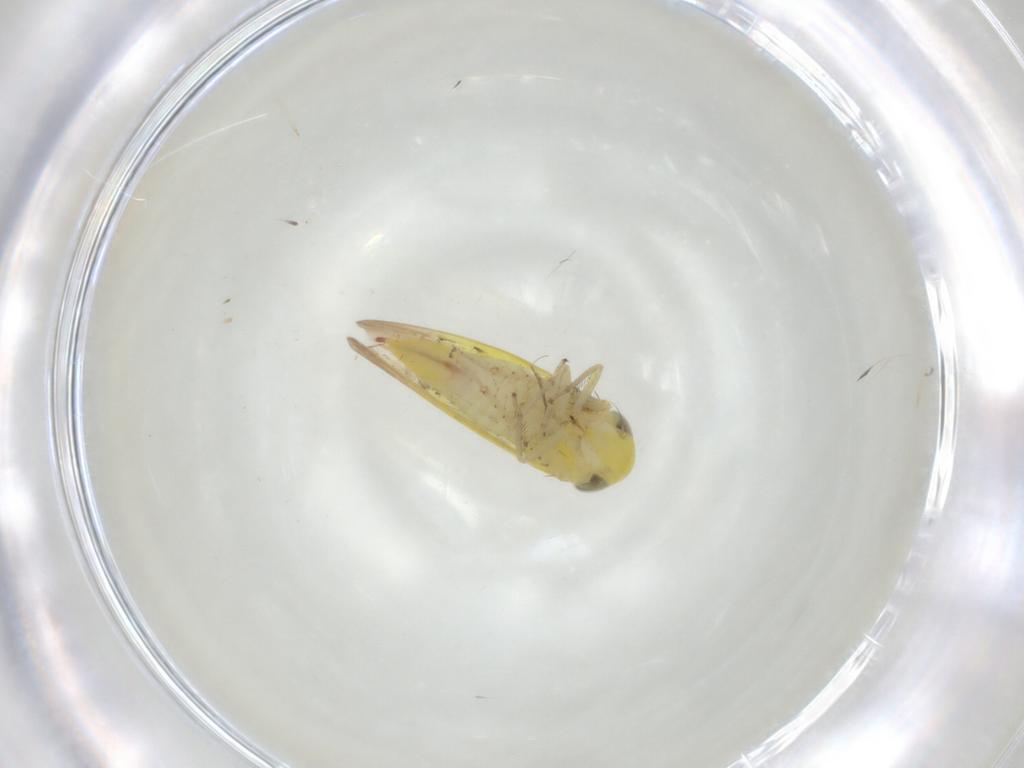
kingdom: Animalia
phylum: Arthropoda
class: Insecta
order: Hemiptera
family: Cicadellidae
